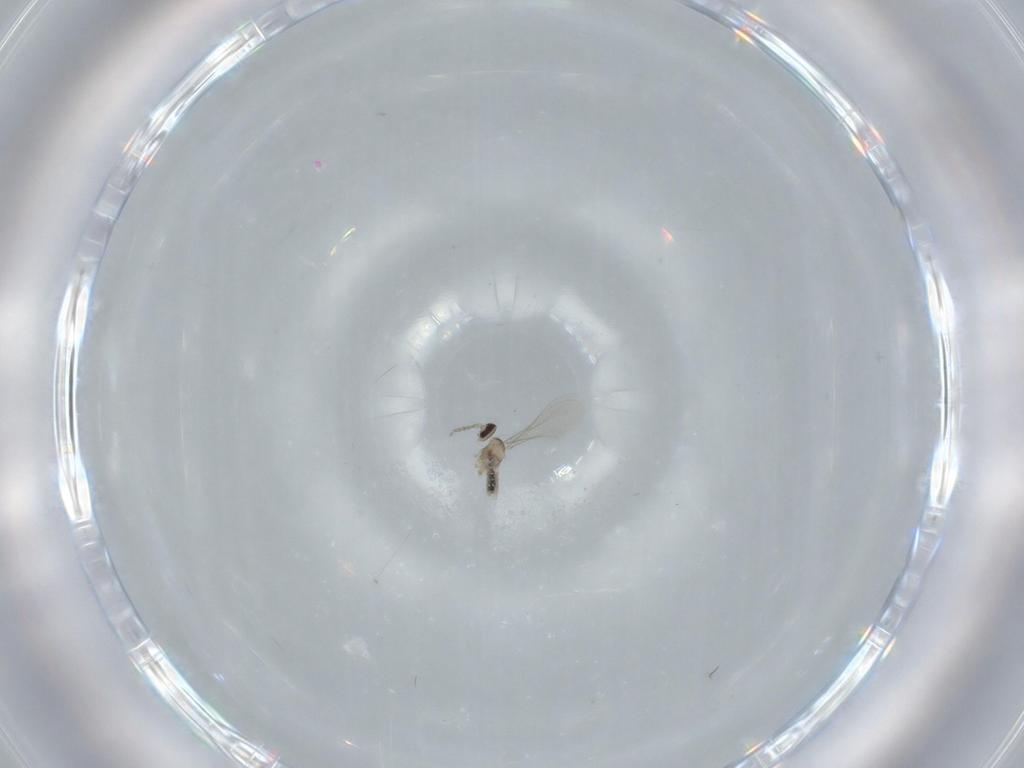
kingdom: Animalia
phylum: Arthropoda
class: Insecta
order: Diptera
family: Cecidomyiidae
